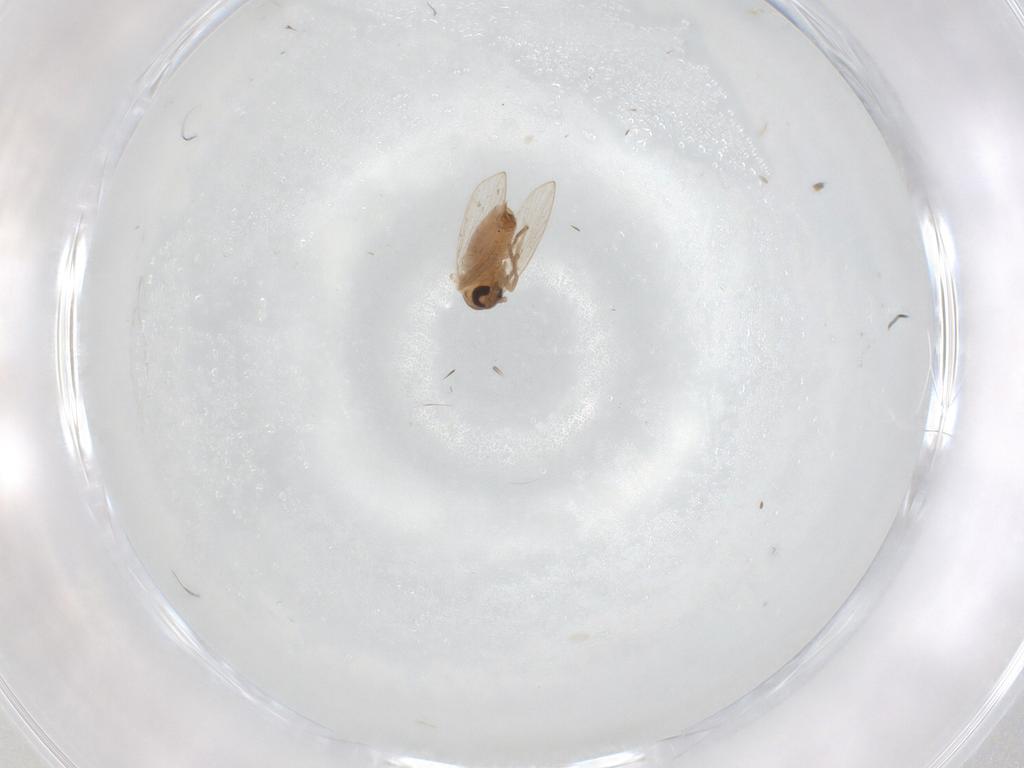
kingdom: Animalia
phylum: Arthropoda
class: Insecta
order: Diptera
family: Psychodidae
